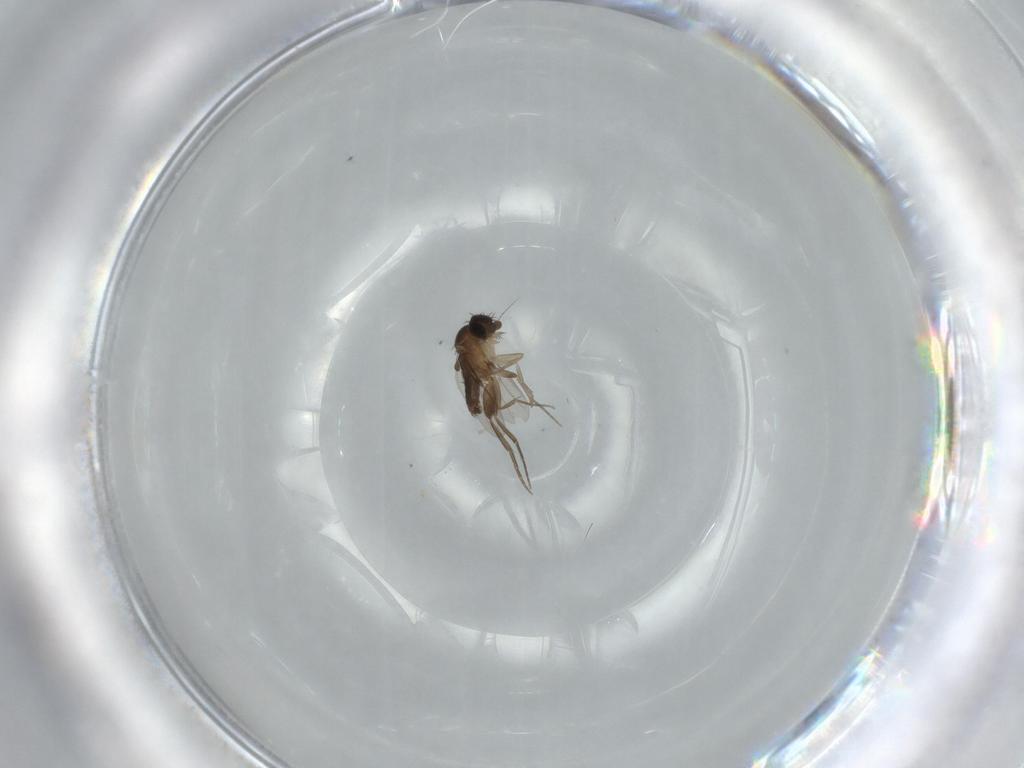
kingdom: Animalia
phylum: Arthropoda
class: Insecta
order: Diptera
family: Phoridae
